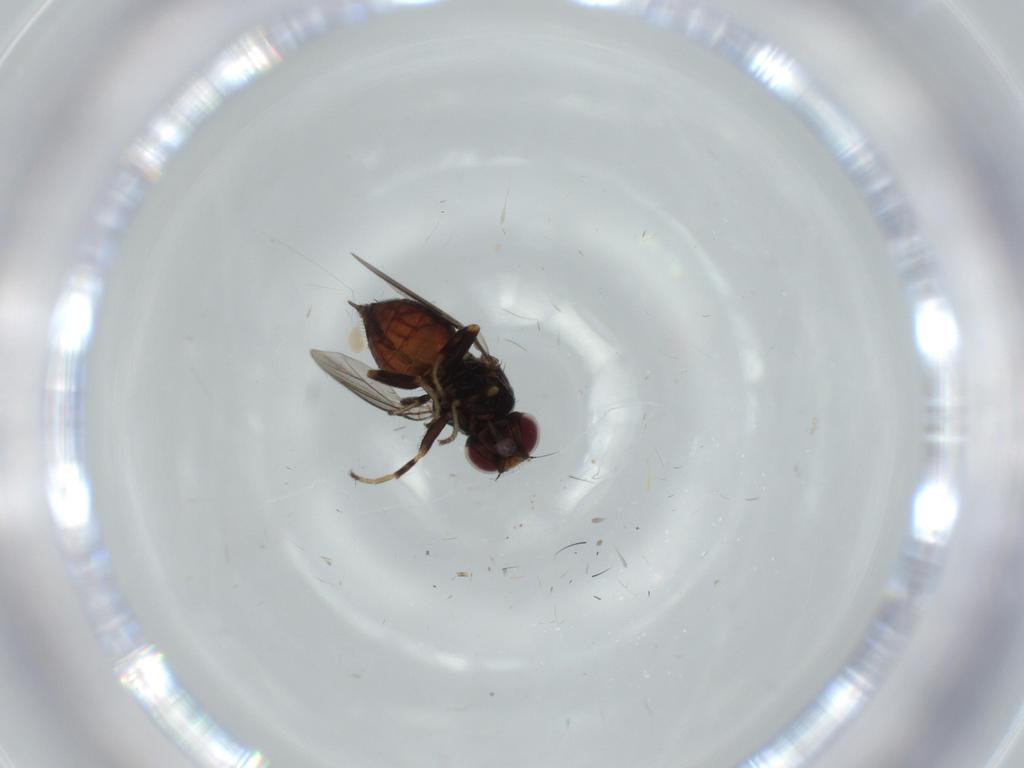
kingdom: Animalia
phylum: Arthropoda
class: Insecta
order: Diptera
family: Chloropidae
